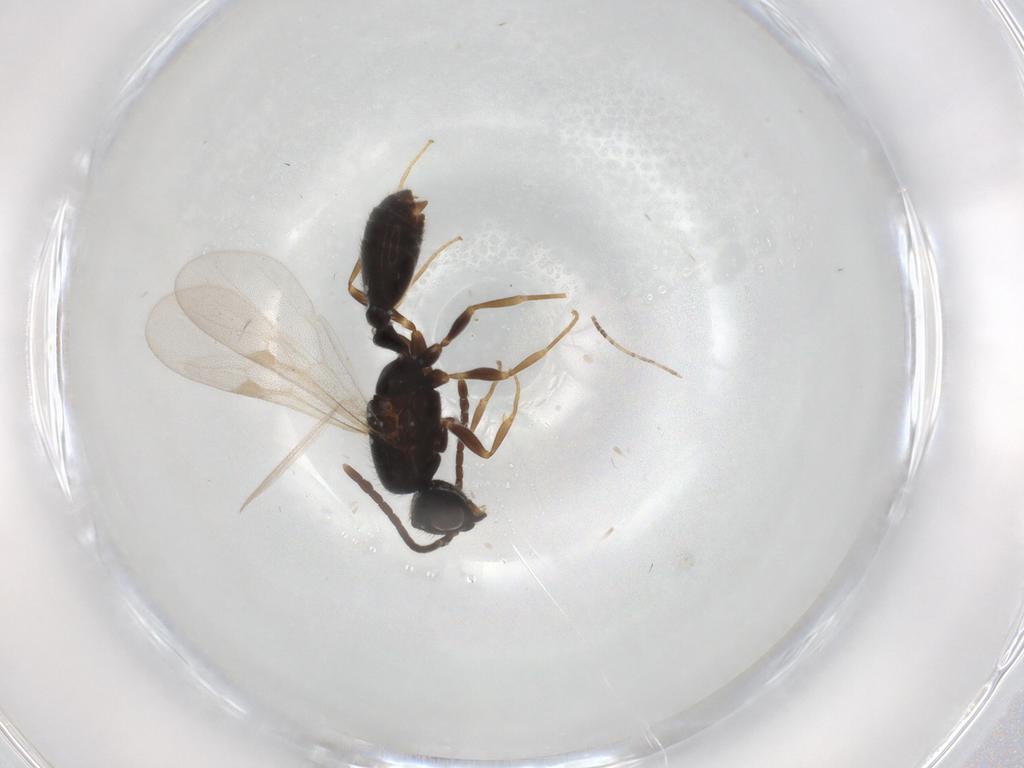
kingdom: Animalia
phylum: Arthropoda
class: Insecta
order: Hymenoptera
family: Formicidae
